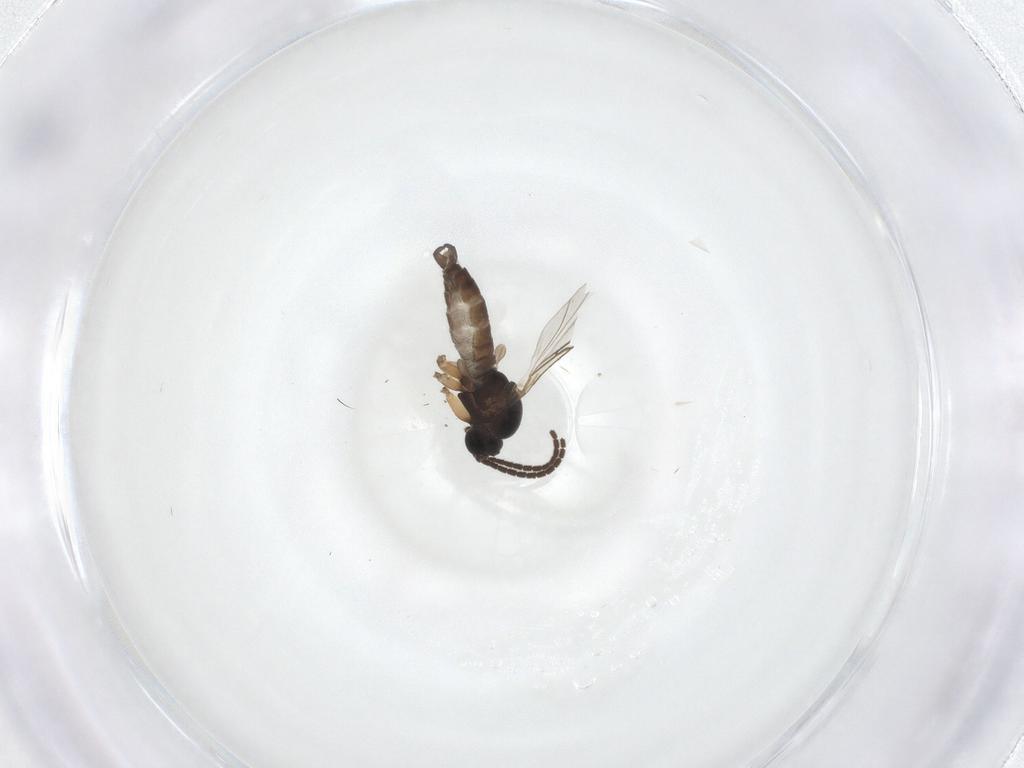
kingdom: Animalia
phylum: Arthropoda
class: Insecta
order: Diptera
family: Sciaridae
